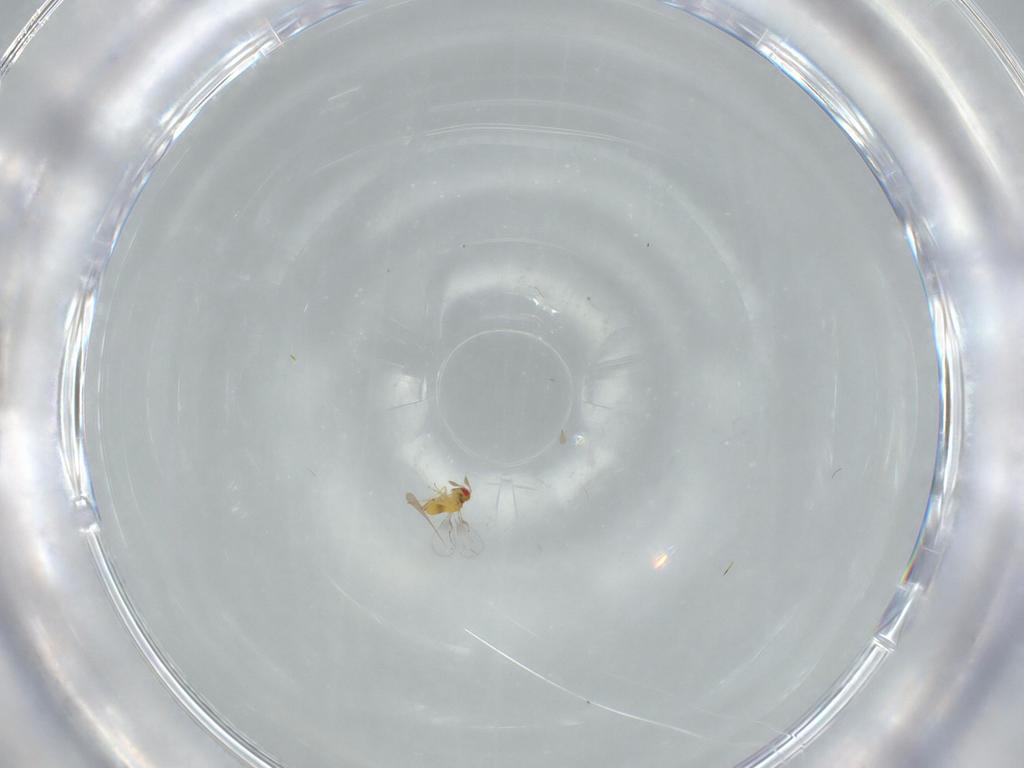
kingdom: Animalia
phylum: Arthropoda
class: Insecta
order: Hymenoptera
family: Trichogrammatidae
